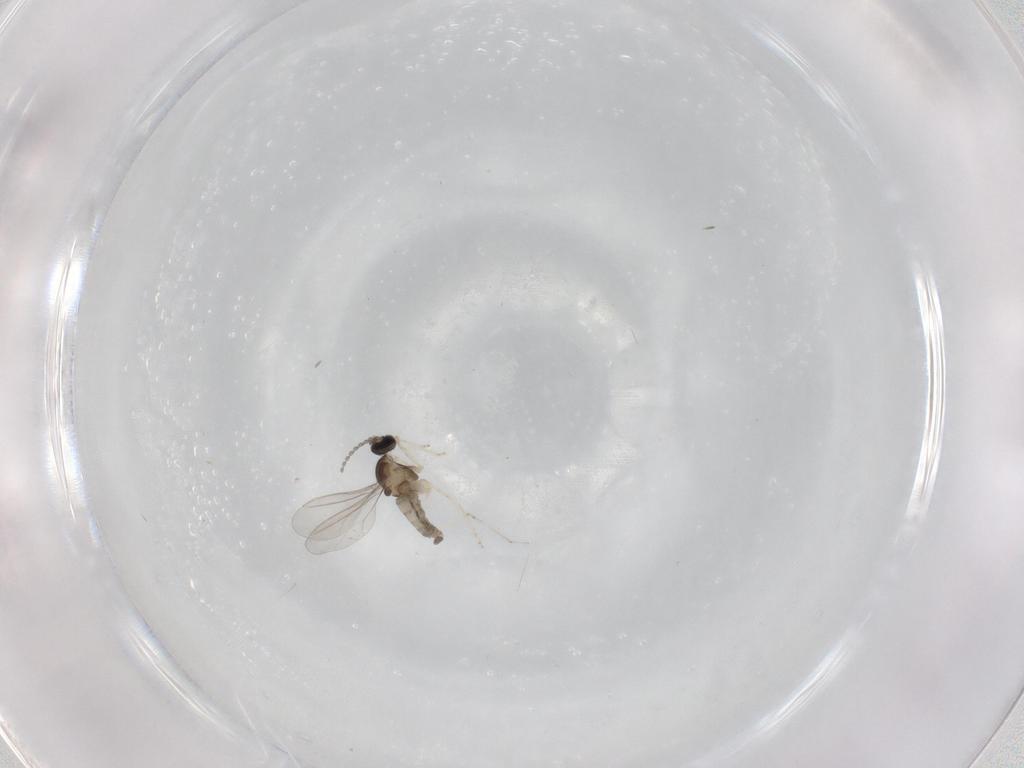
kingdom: Animalia
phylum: Arthropoda
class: Insecta
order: Diptera
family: Cecidomyiidae
